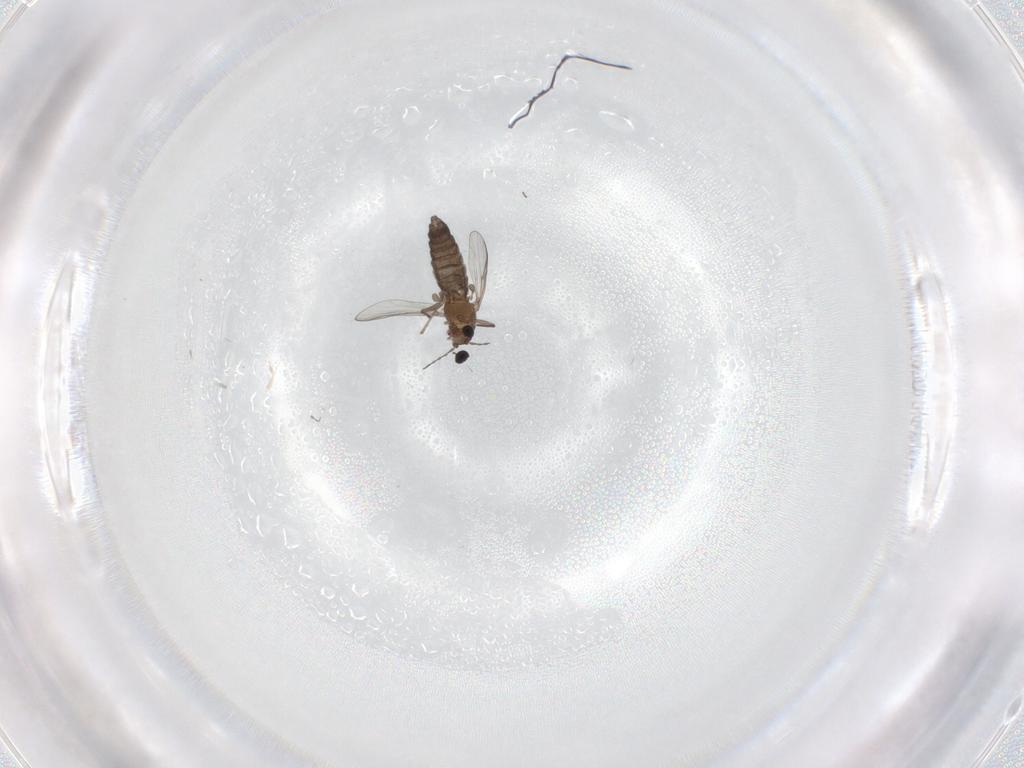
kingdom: Animalia
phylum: Arthropoda
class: Insecta
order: Diptera
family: Chironomidae
